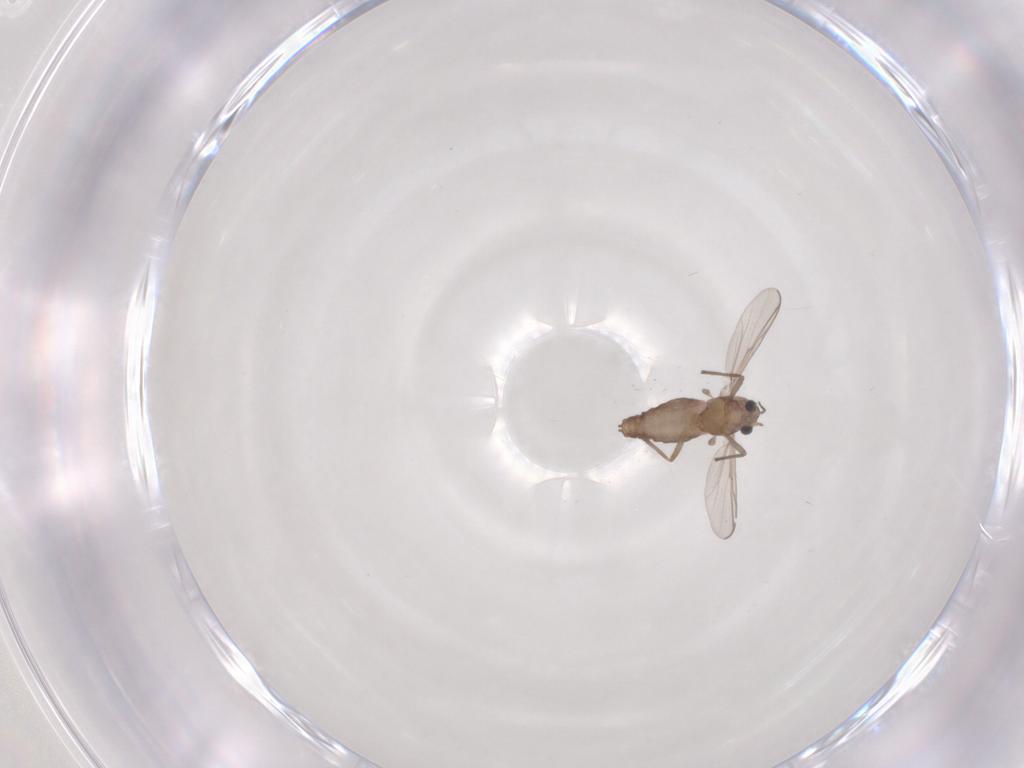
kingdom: Animalia
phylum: Arthropoda
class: Insecta
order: Diptera
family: Chironomidae
